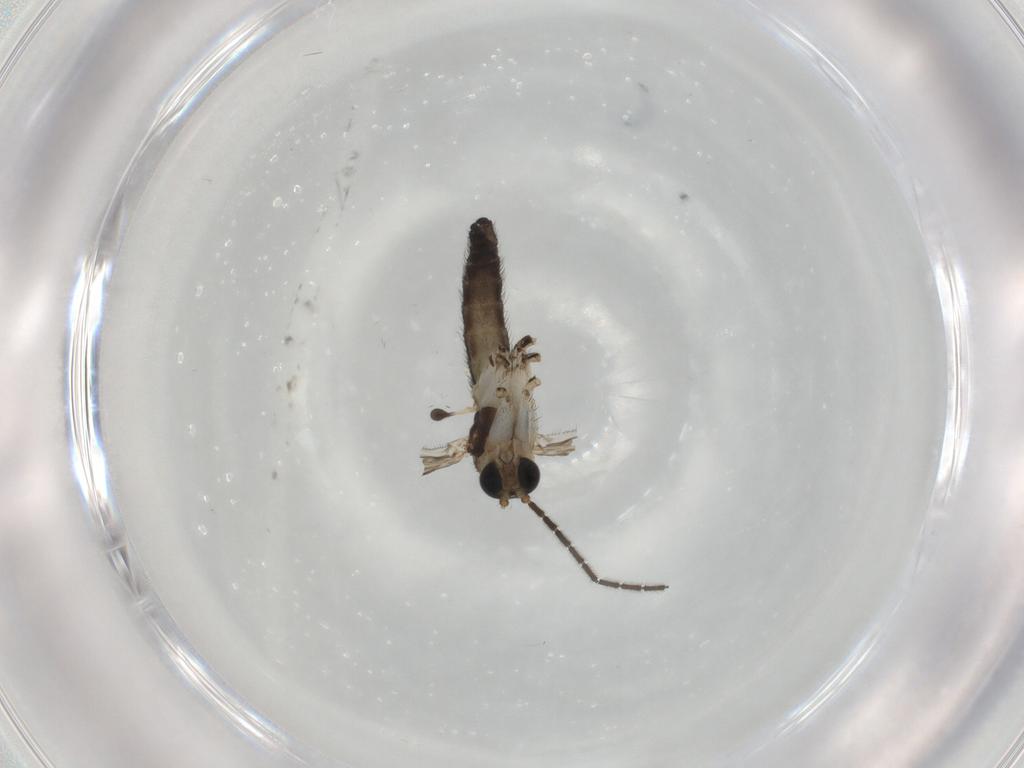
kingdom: Animalia
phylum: Arthropoda
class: Insecta
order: Diptera
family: Sciaridae
